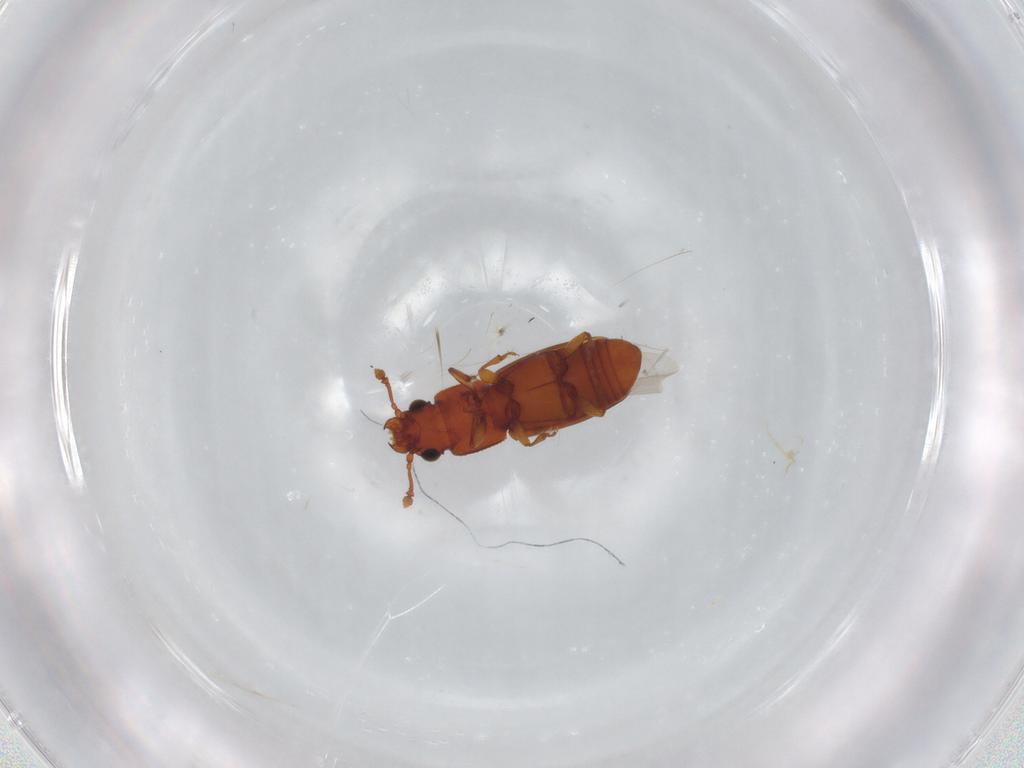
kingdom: Animalia
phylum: Arthropoda
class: Insecta
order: Coleoptera
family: Monotomidae
